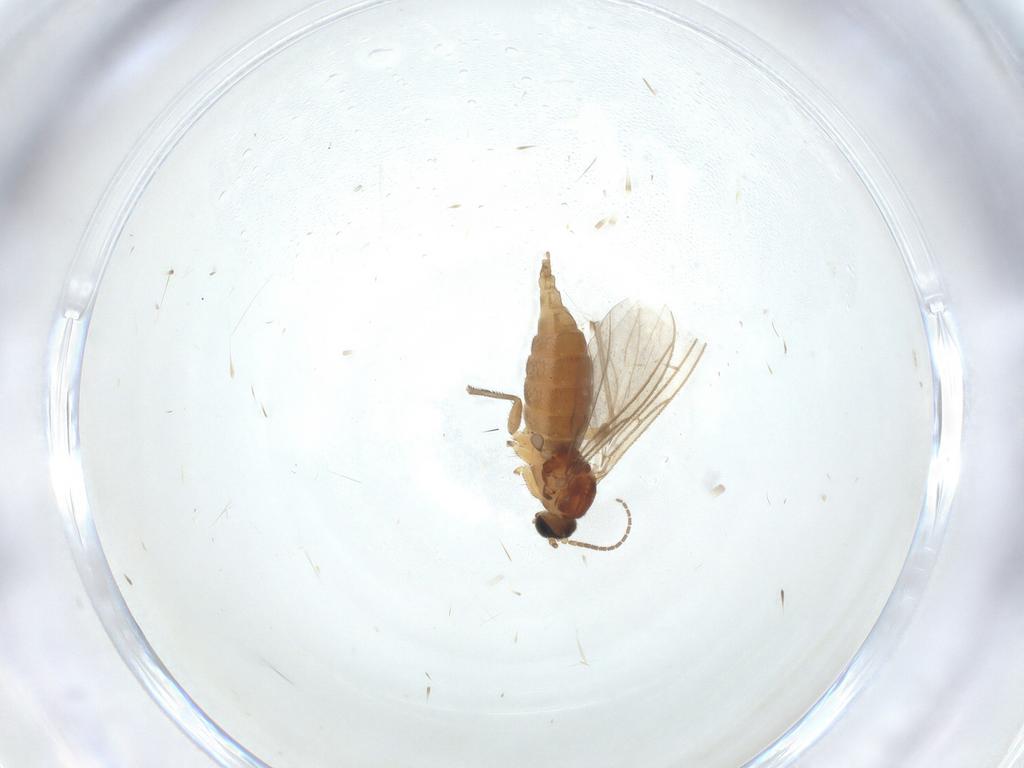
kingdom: Animalia
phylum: Arthropoda
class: Insecta
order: Diptera
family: Sciaridae
